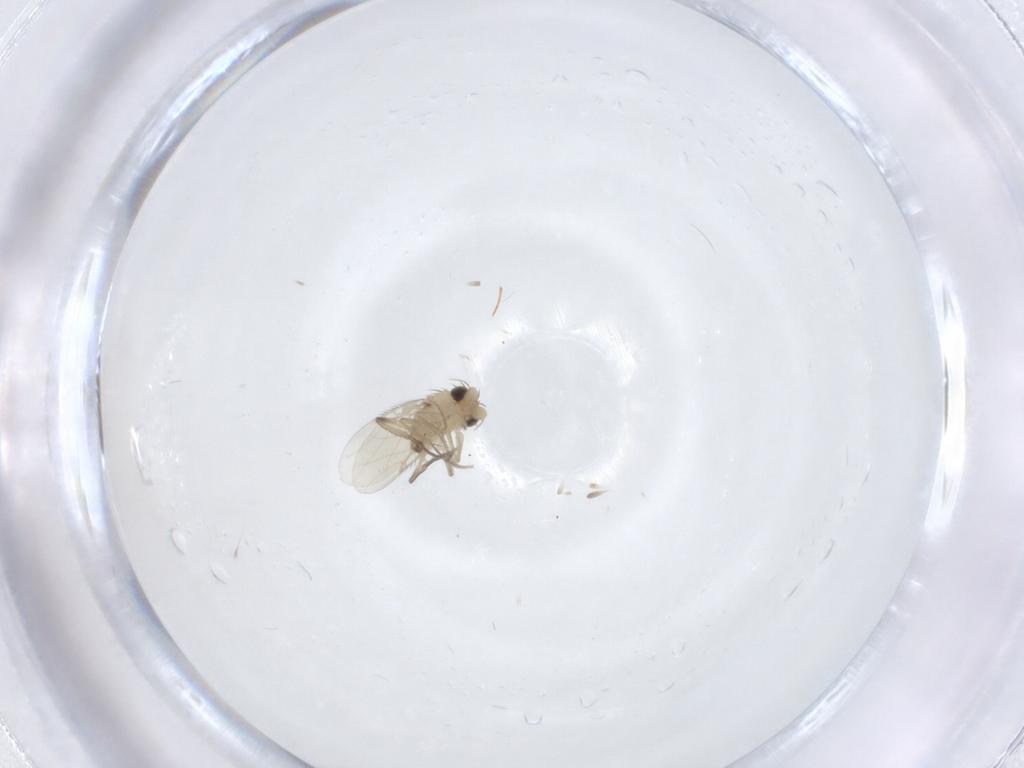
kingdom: Animalia
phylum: Arthropoda
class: Insecta
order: Diptera
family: Phoridae
